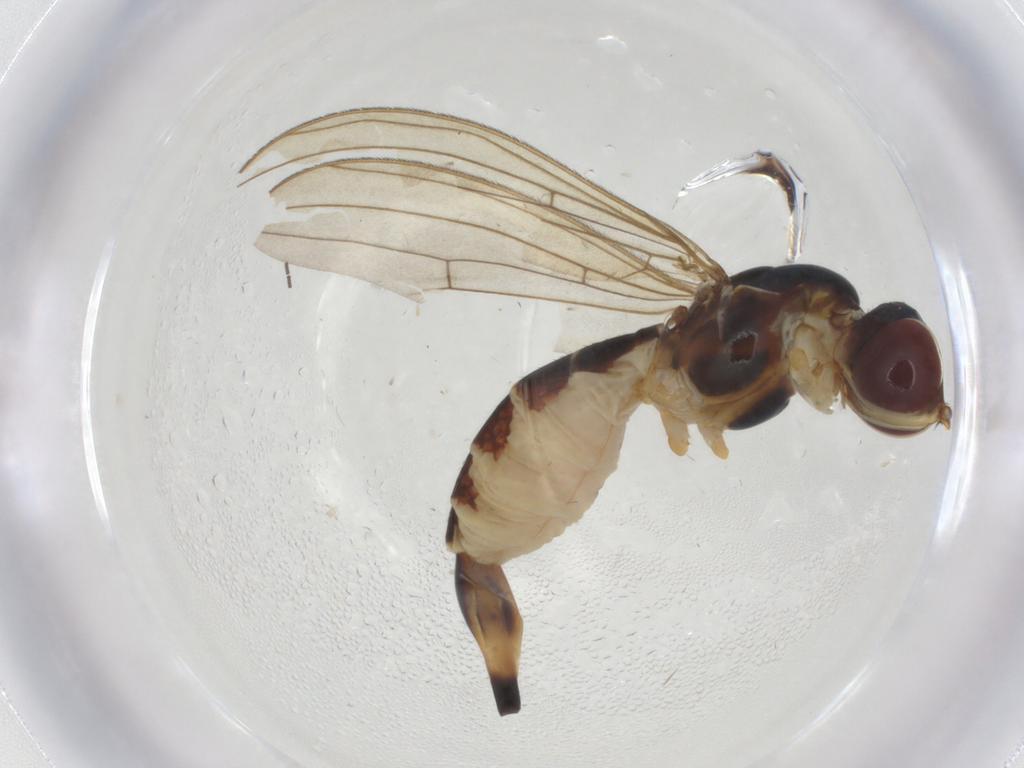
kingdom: Animalia
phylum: Arthropoda
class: Insecta
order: Diptera
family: Micropezidae
